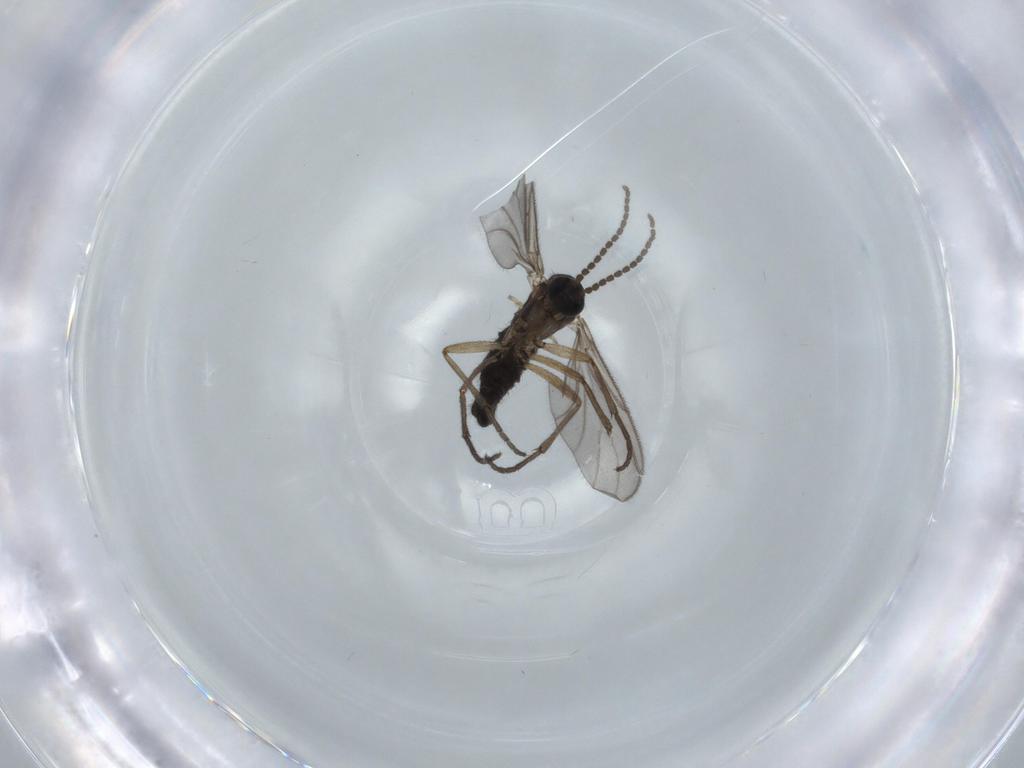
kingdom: Animalia
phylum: Arthropoda
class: Insecta
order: Diptera
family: Sciaridae
